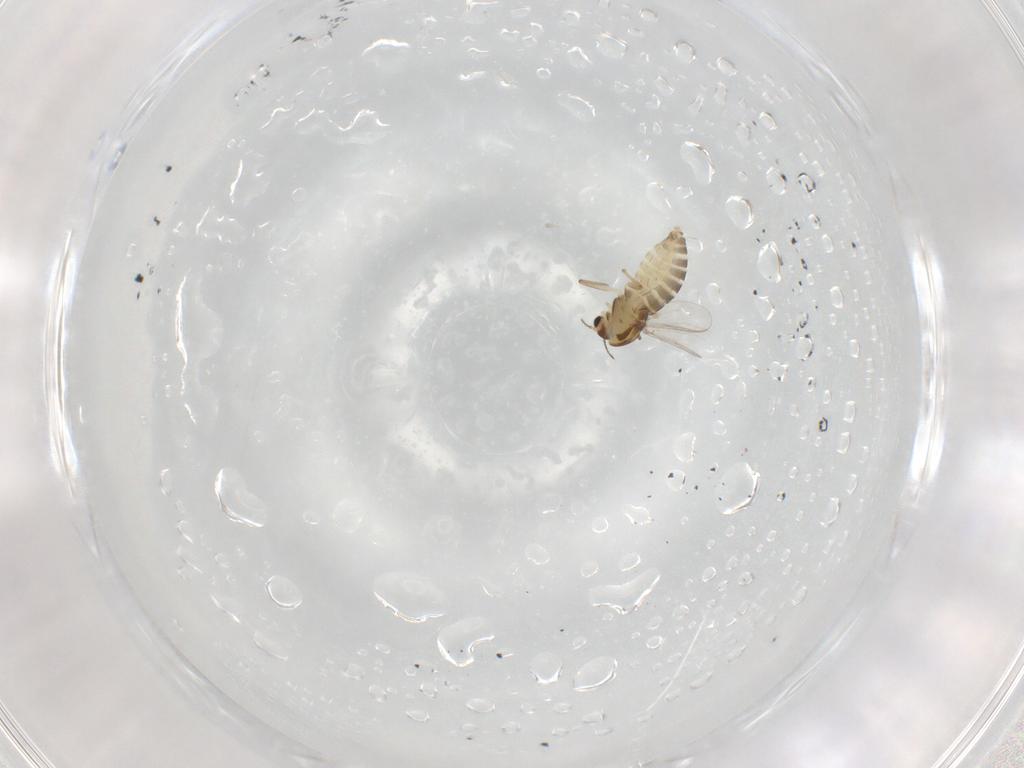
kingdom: Animalia
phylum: Arthropoda
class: Insecta
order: Diptera
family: Chironomidae
